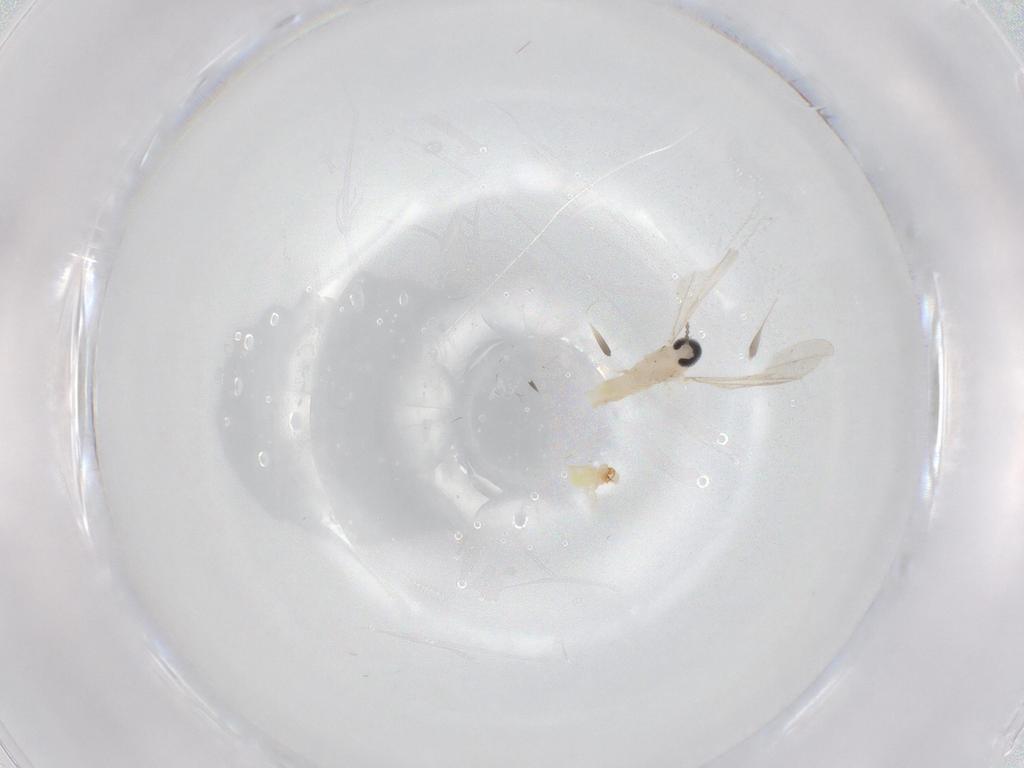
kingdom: Animalia
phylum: Arthropoda
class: Insecta
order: Diptera
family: Cecidomyiidae
